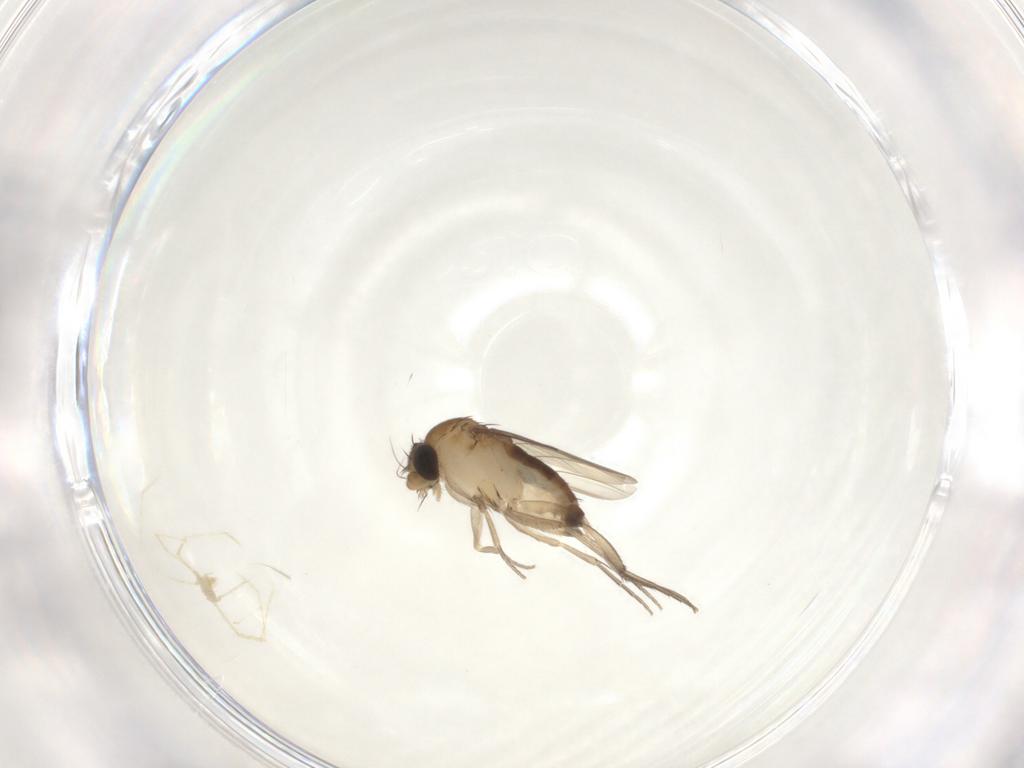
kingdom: Animalia
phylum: Arthropoda
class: Insecta
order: Diptera
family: Phoridae
